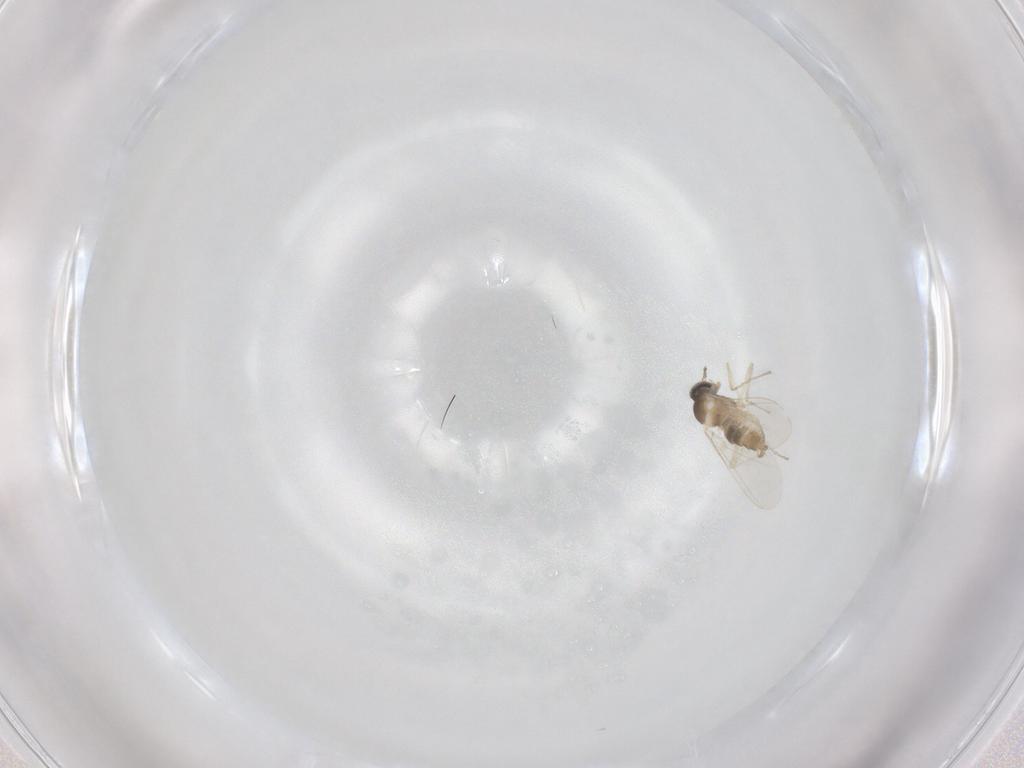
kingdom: Animalia
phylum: Arthropoda
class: Insecta
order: Diptera
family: Cecidomyiidae
